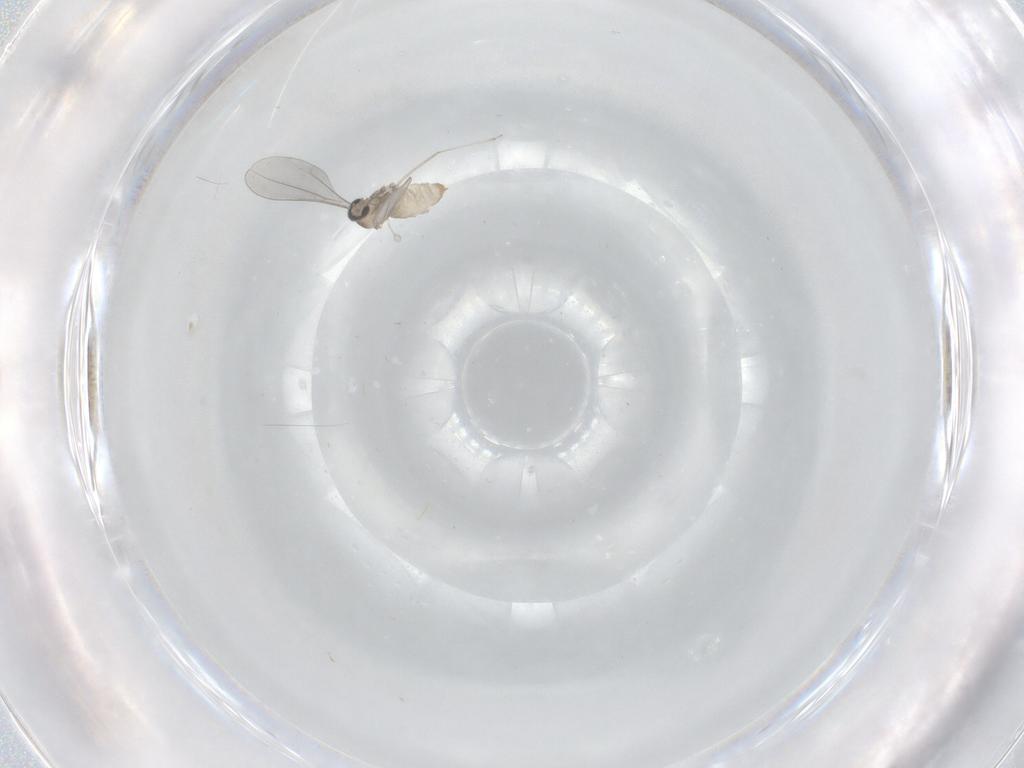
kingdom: Animalia
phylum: Arthropoda
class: Insecta
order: Diptera
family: Cecidomyiidae
